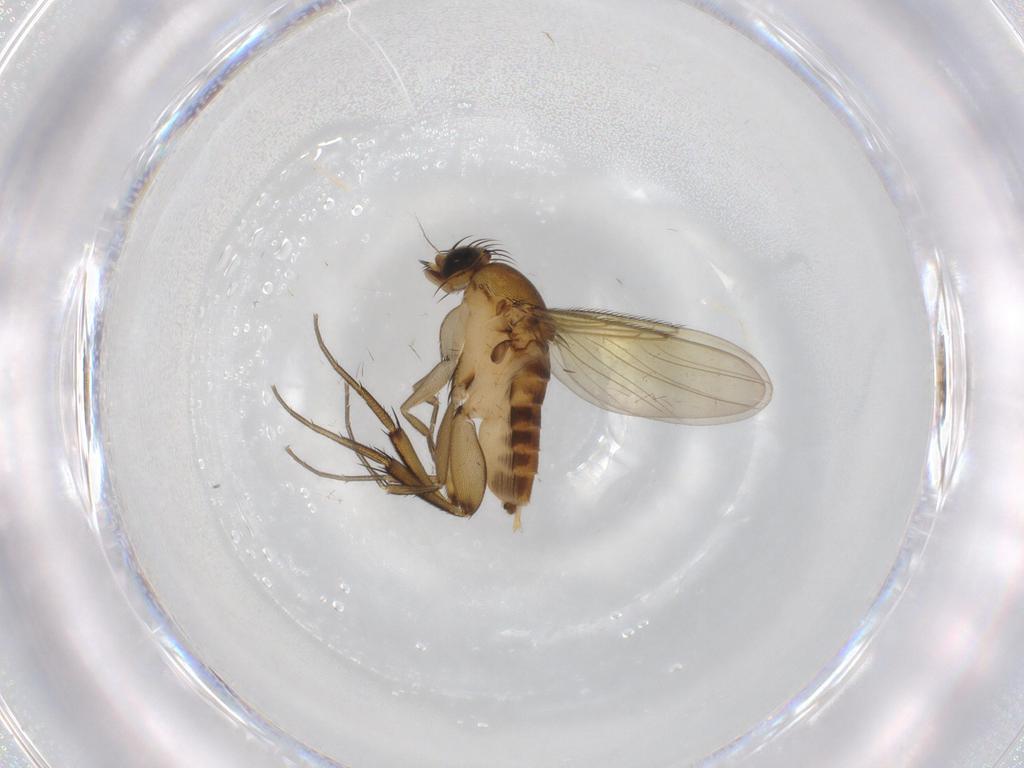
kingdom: Animalia
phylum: Arthropoda
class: Insecta
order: Diptera
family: Phoridae
